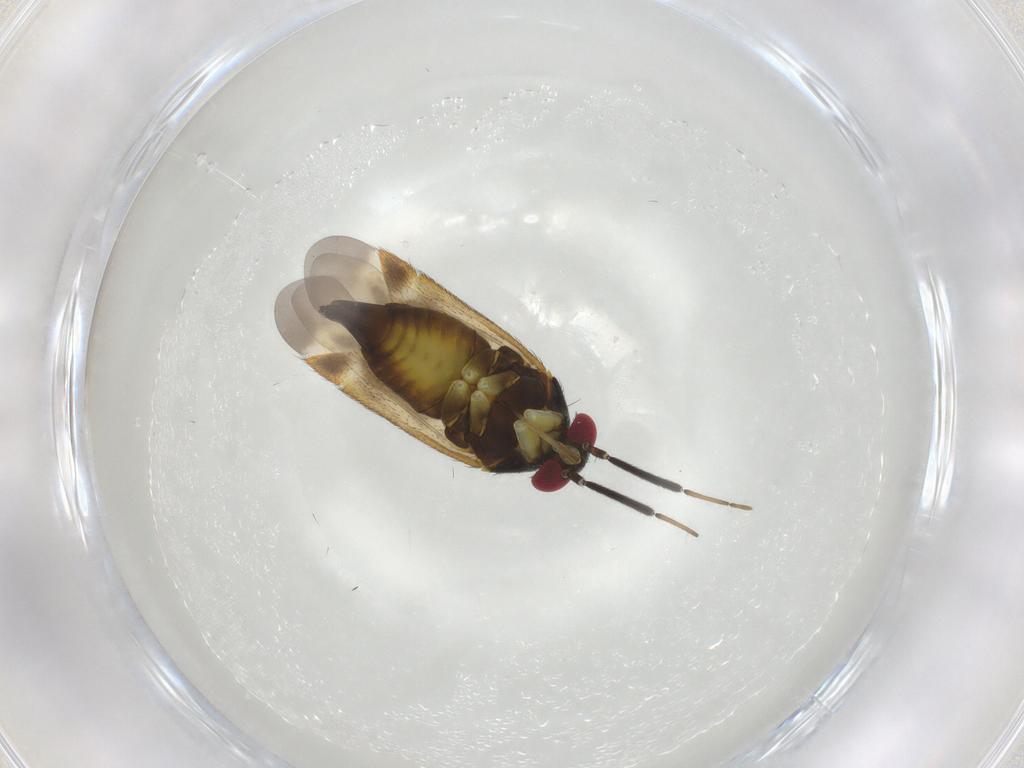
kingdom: Animalia
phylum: Arthropoda
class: Insecta
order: Hemiptera
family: Miridae
